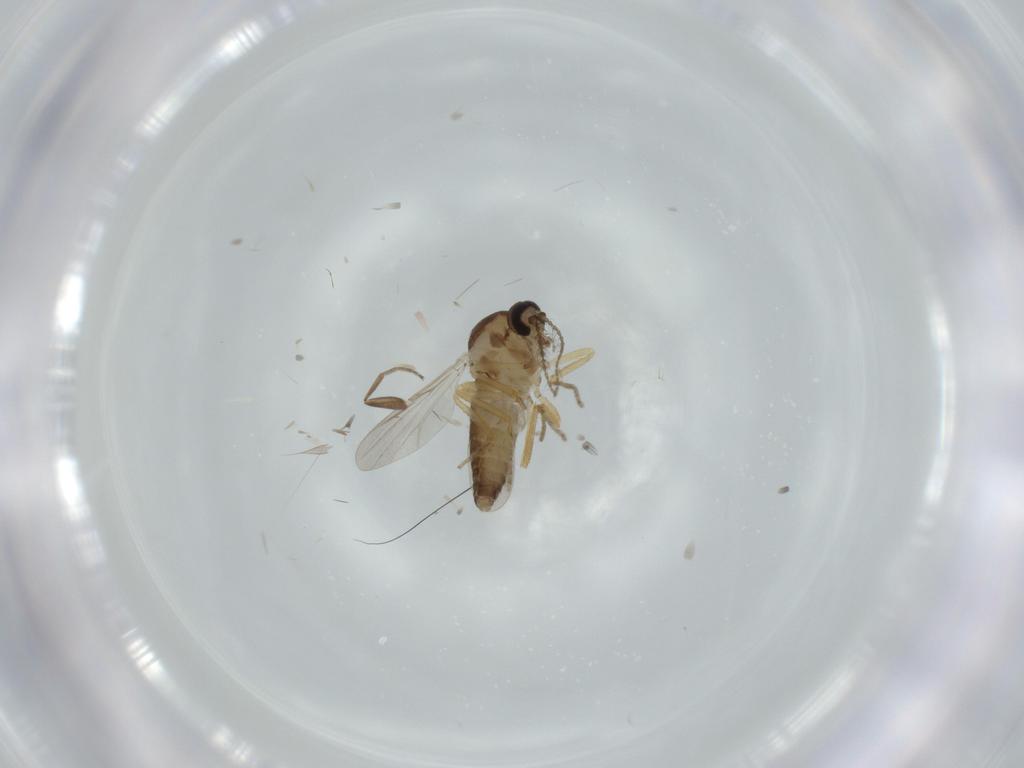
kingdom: Animalia
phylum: Arthropoda
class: Insecta
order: Diptera
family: Ceratopogonidae
